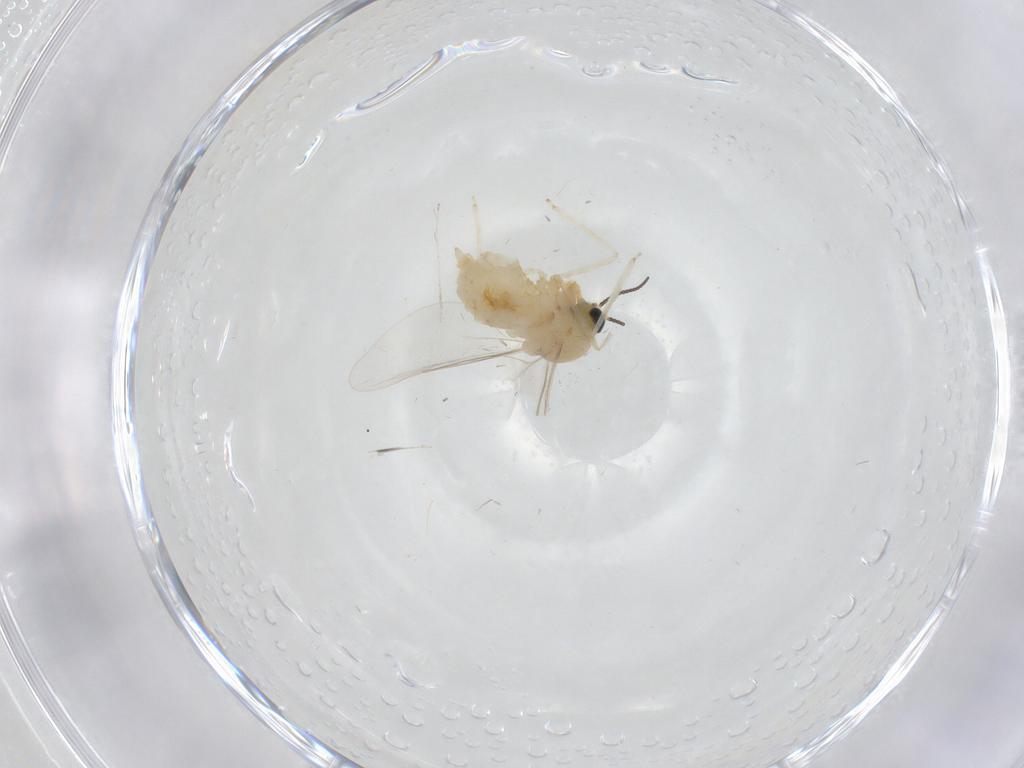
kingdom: Animalia
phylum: Arthropoda
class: Insecta
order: Diptera
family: Cecidomyiidae
